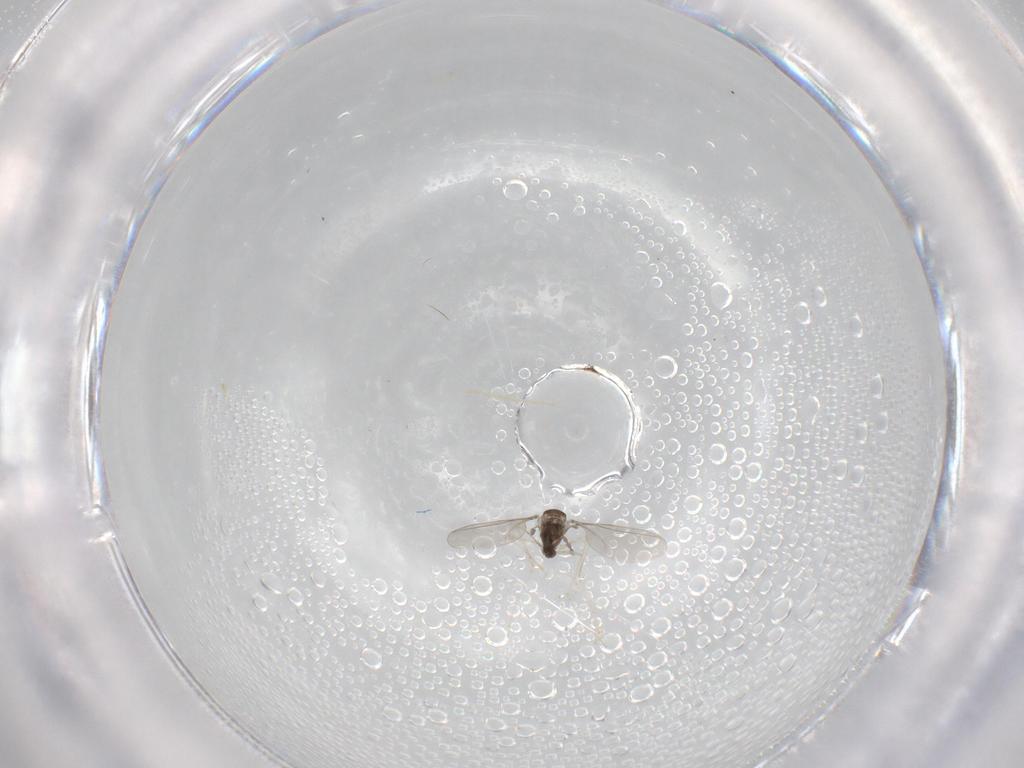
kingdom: Animalia
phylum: Arthropoda
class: Insecta
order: Diptera
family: Cecidomyiidae
